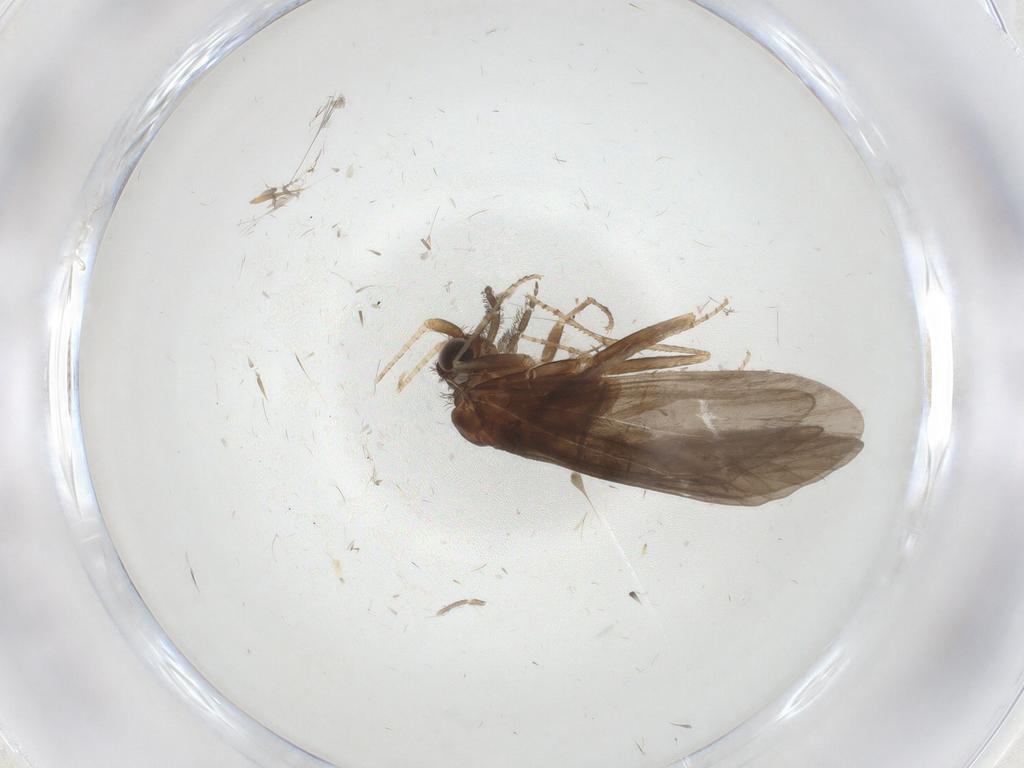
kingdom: Animalia
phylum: Arthropoda
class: Insecta
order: Trichoptera
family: Helicopsychidae
